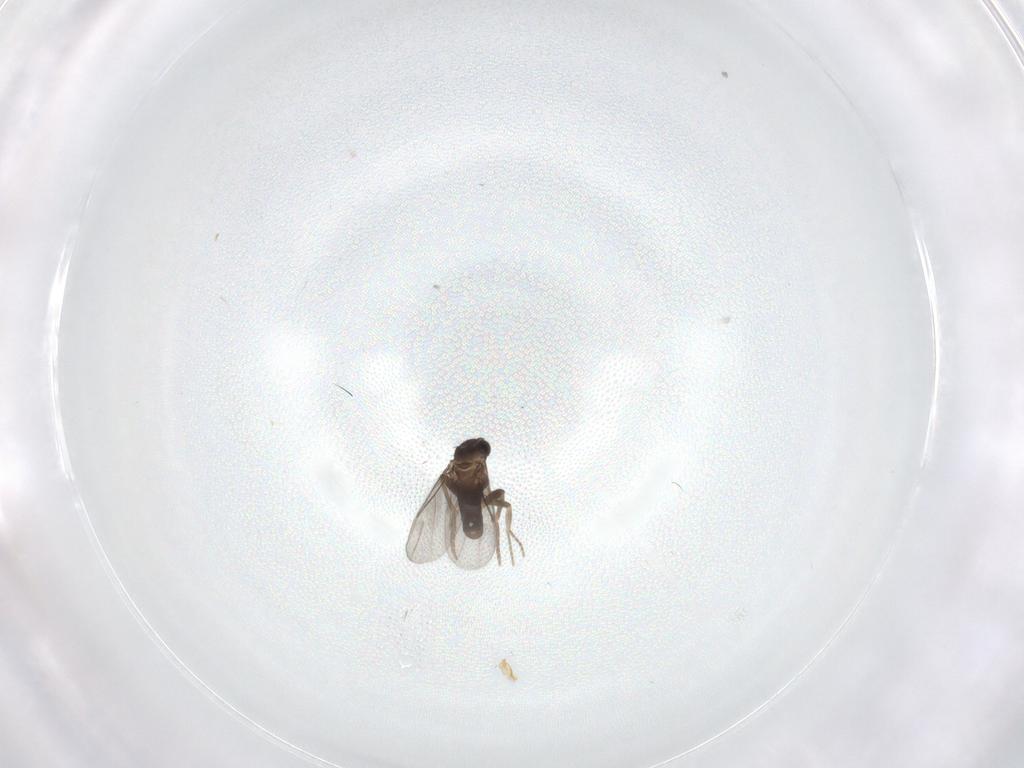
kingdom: Animalia
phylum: Arthropoda
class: Insecta
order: Diptera
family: Chironomidae
